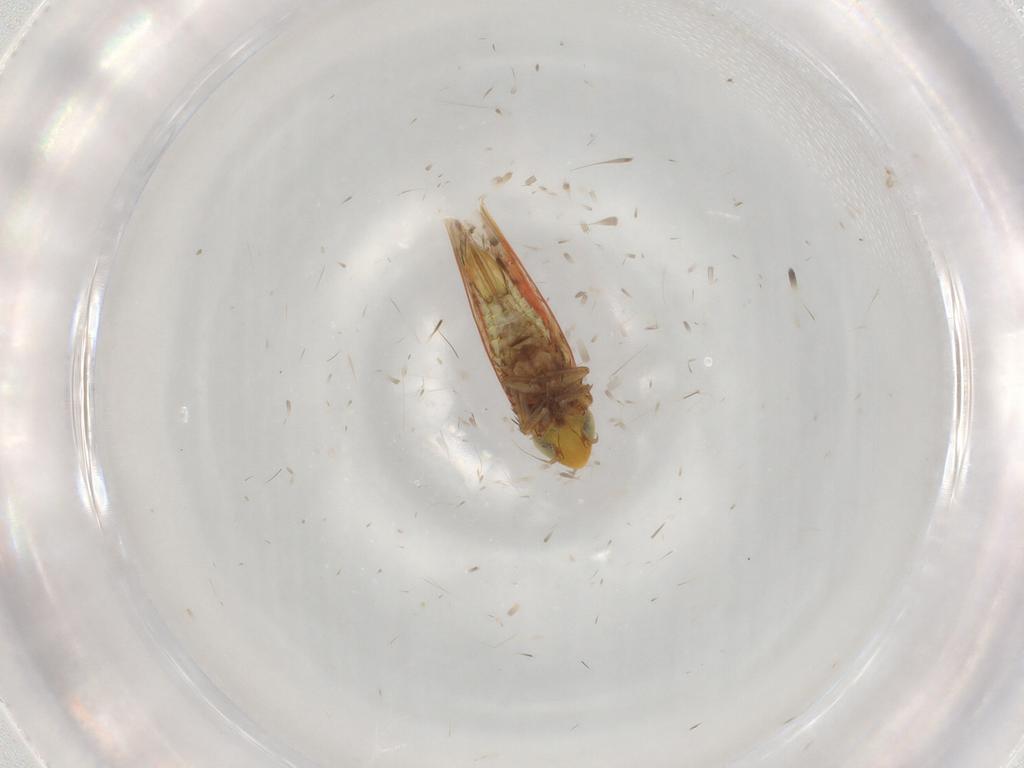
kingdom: Animalia
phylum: Arthropoda
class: Insecta
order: Hemiptera
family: Cicadellidae
